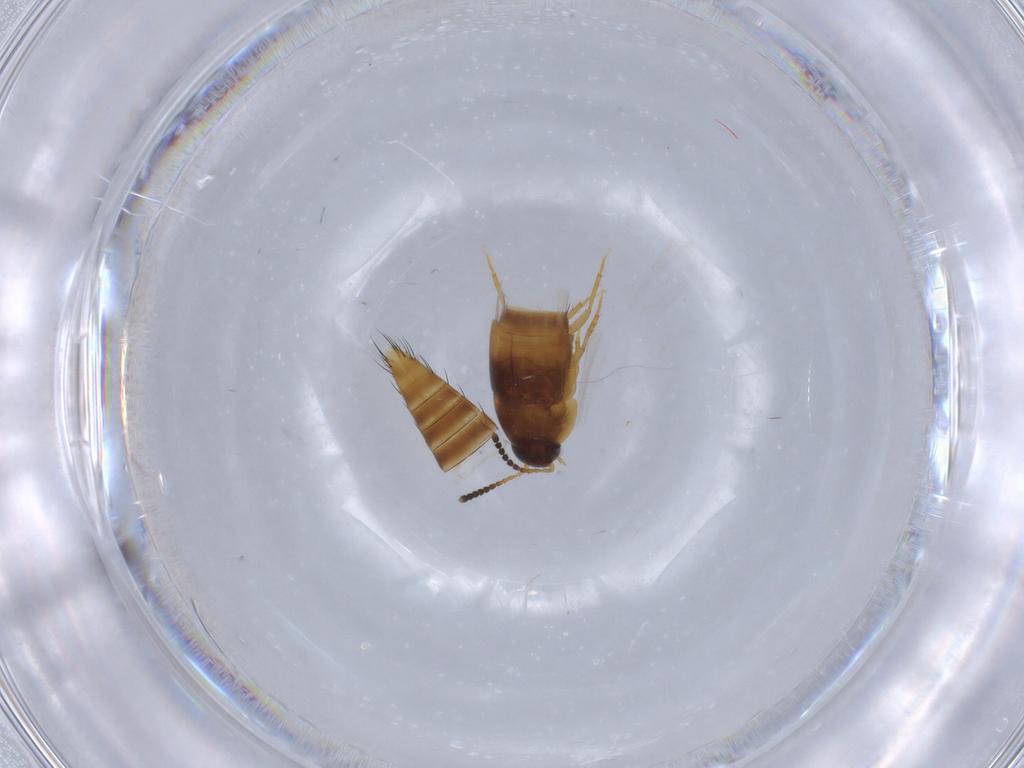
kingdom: Animalia
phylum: Arthropoda
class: Insecta
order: Coleoptera
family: Staphylinidae
